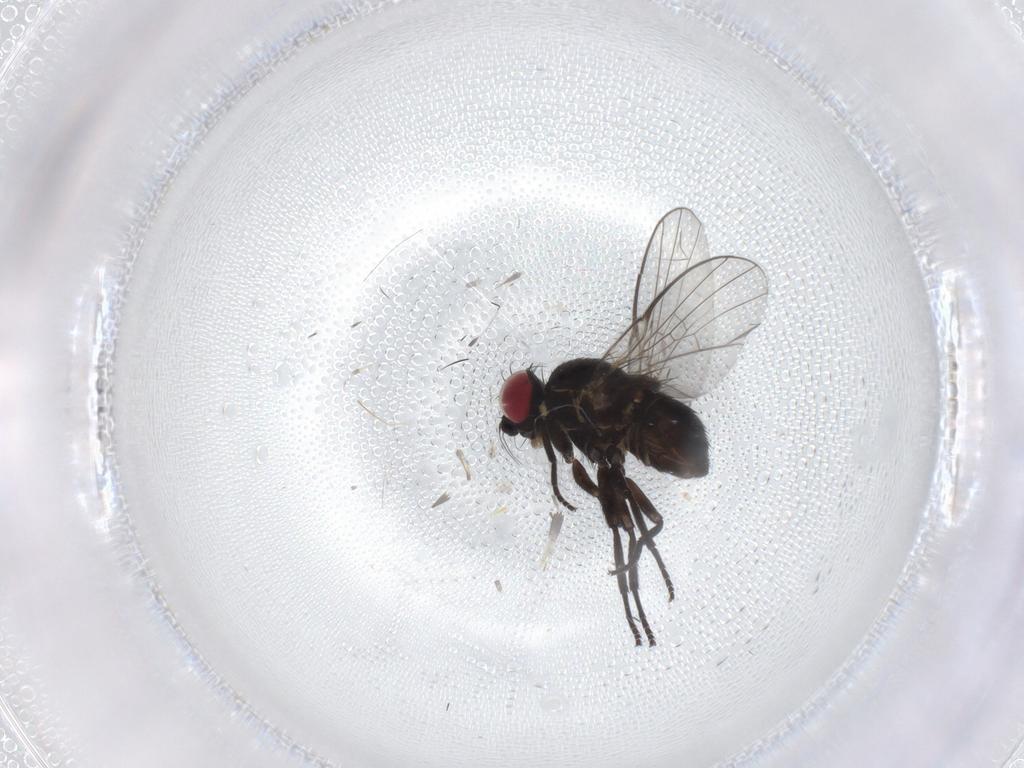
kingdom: Animalia
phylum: Arthropoda
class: Insecta
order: Diptera
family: Agromyzidae
